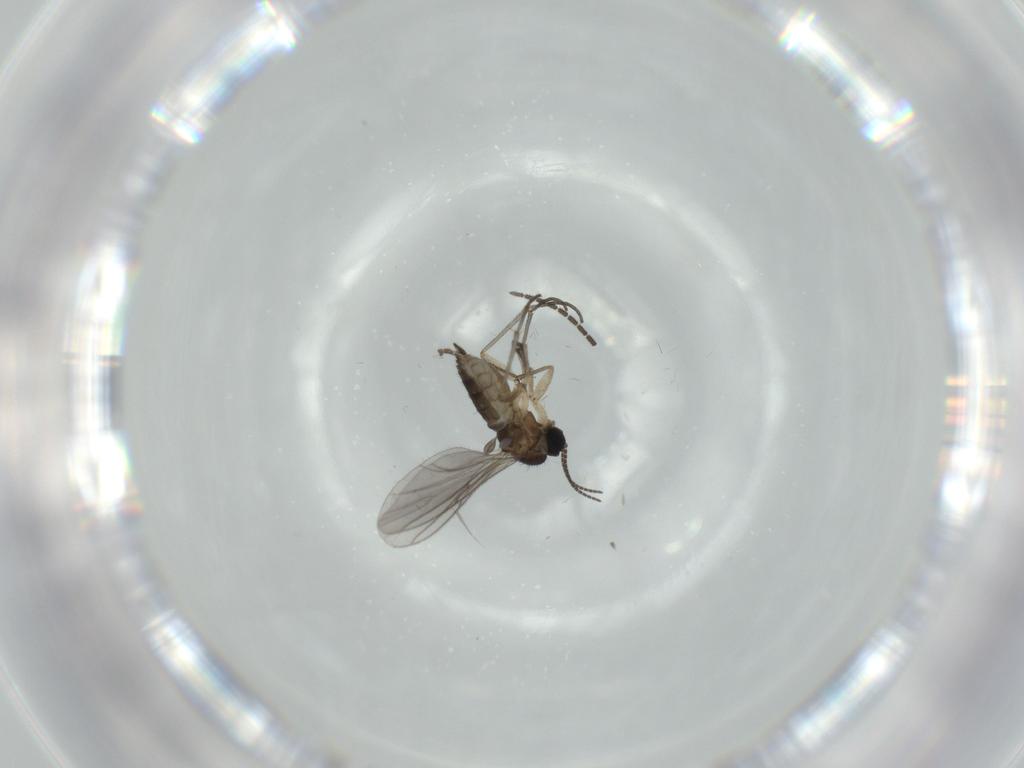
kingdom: Animalia
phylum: Arthropoda
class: Insecta
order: Diptera
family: Sciaridae
